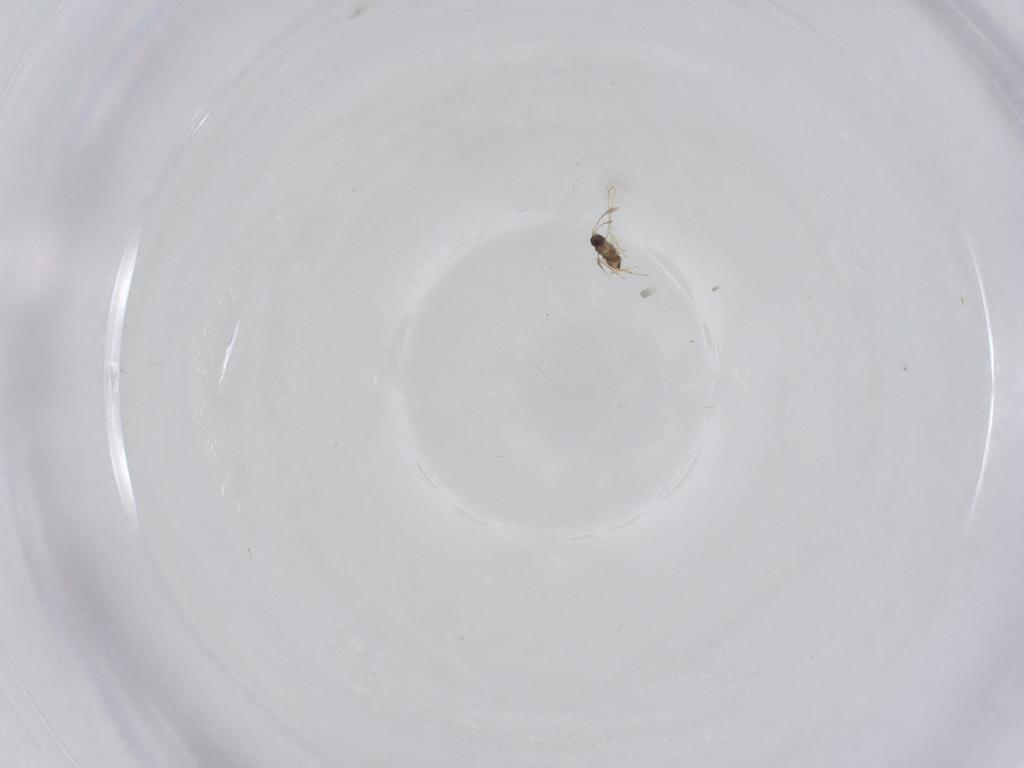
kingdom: Animalia
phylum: Arthropoda
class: Insecta
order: Hymenoptera
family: Mymaridae
